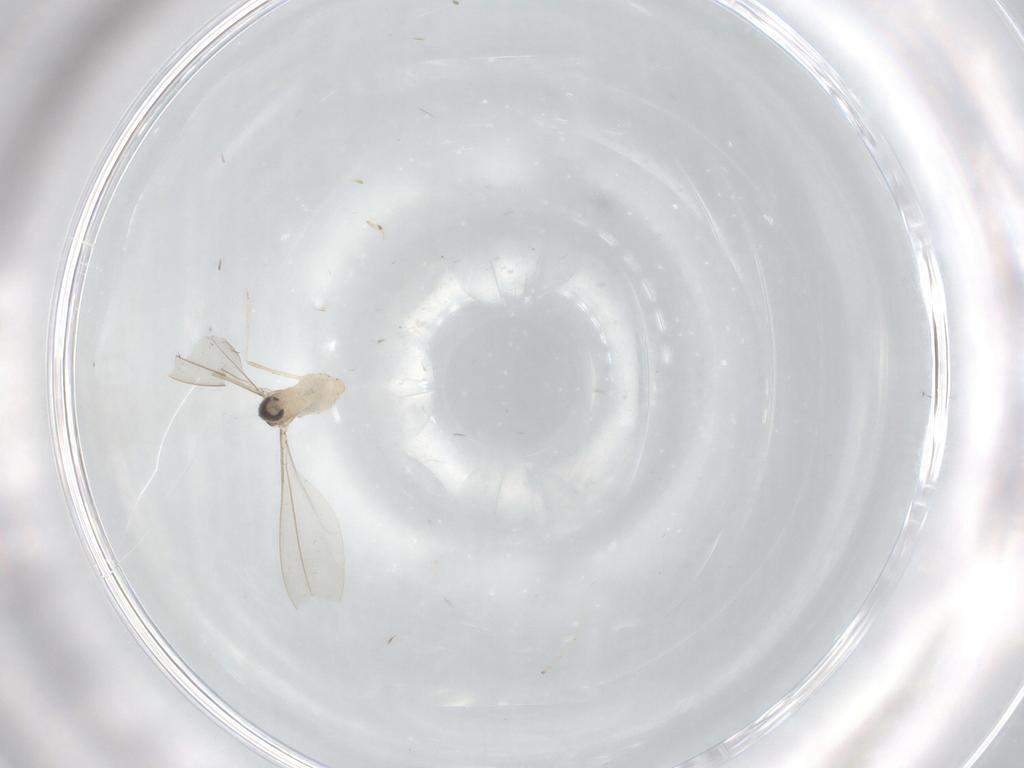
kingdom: Animalia
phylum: Arthropoda
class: Insecta
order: Diptera
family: Cecidomyiidae
